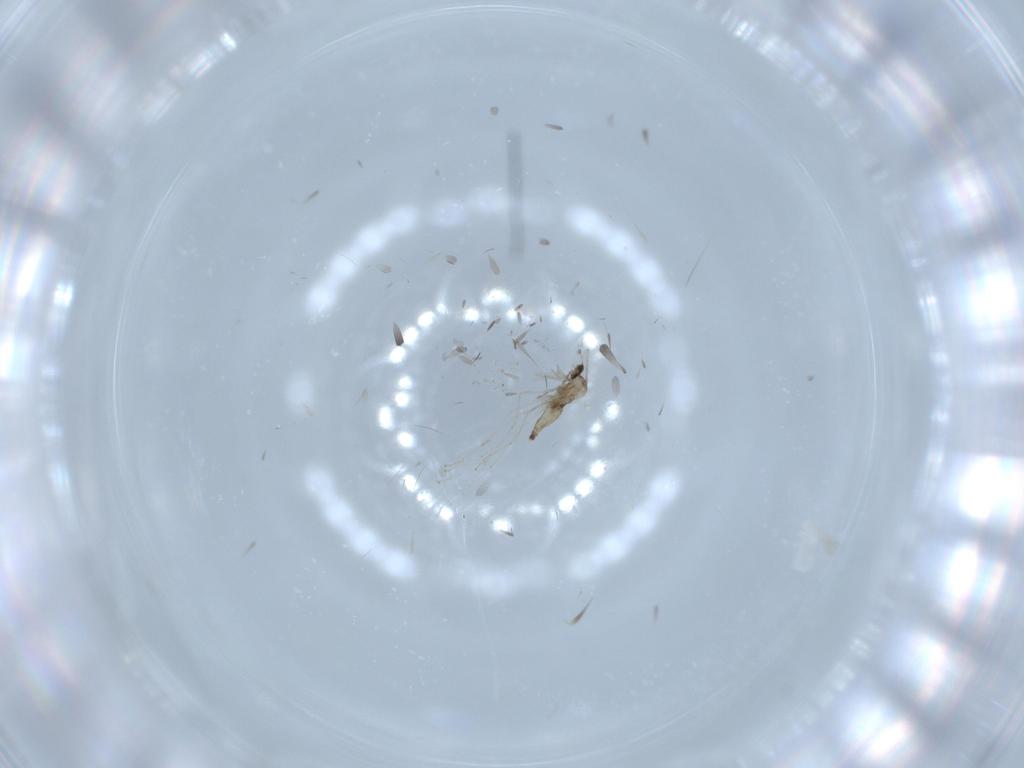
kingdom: Animalia
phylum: Arthropoda
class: Insecta
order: Diptera
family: Cecidomyiidae
